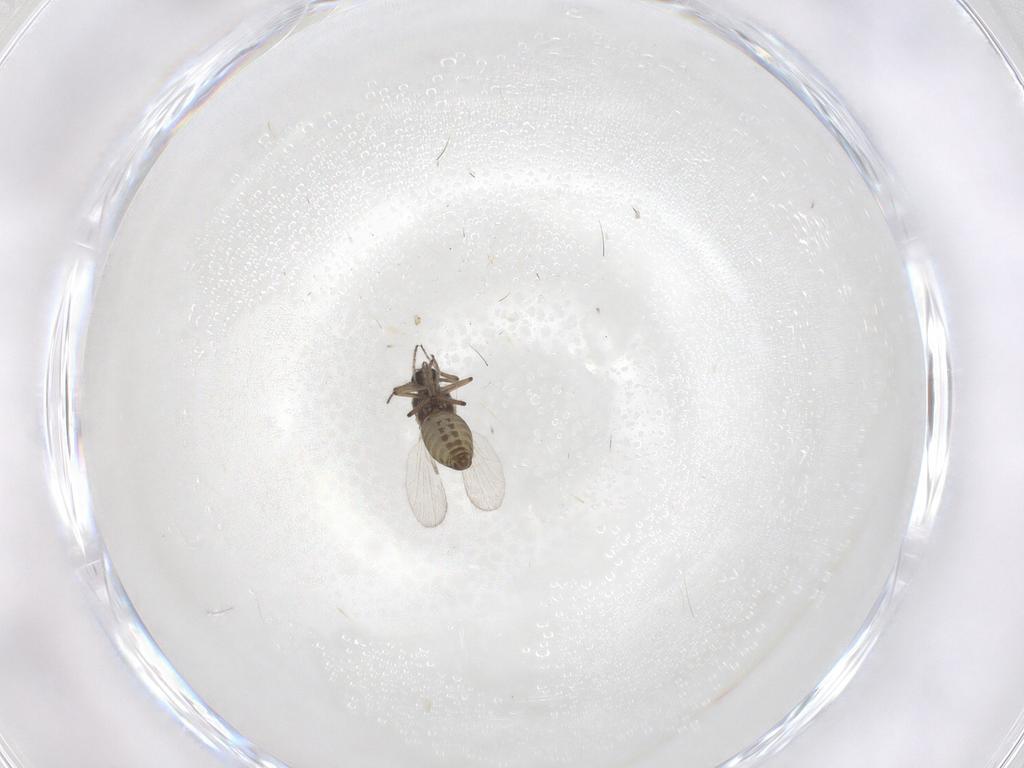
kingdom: Animalia
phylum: Arthropoda
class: Insecta
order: Diptera
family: Ceratopogonidae
